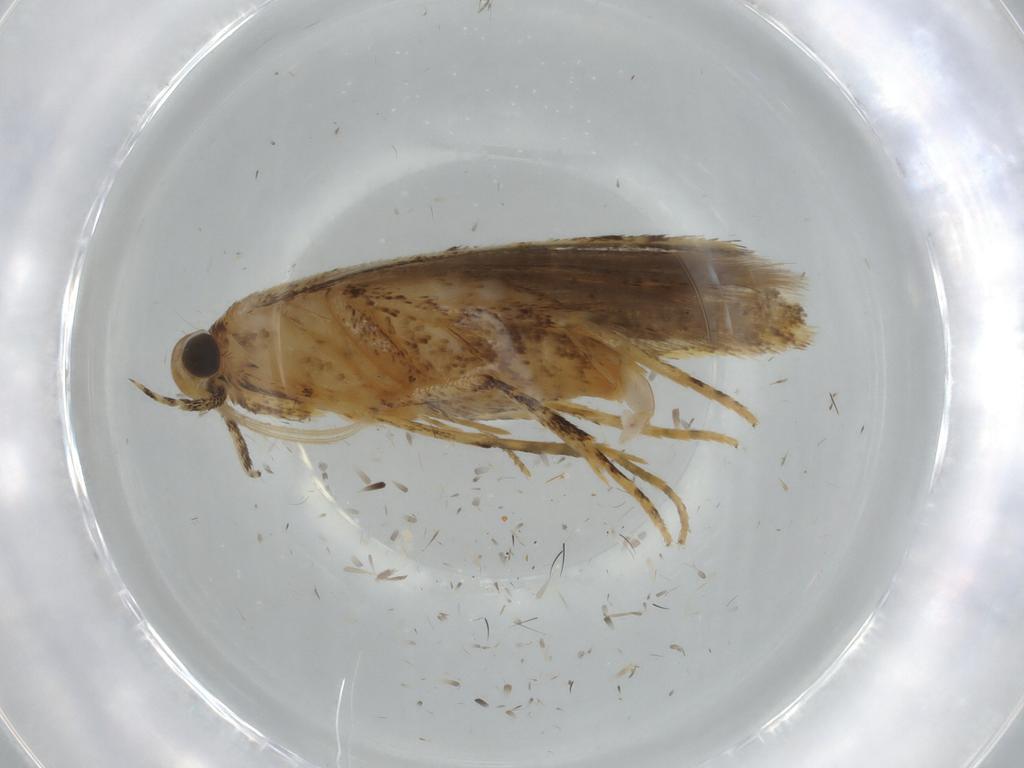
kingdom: Animalia
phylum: Arthropoda
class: Insecta
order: Lepidoptera
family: Gelechiidae
